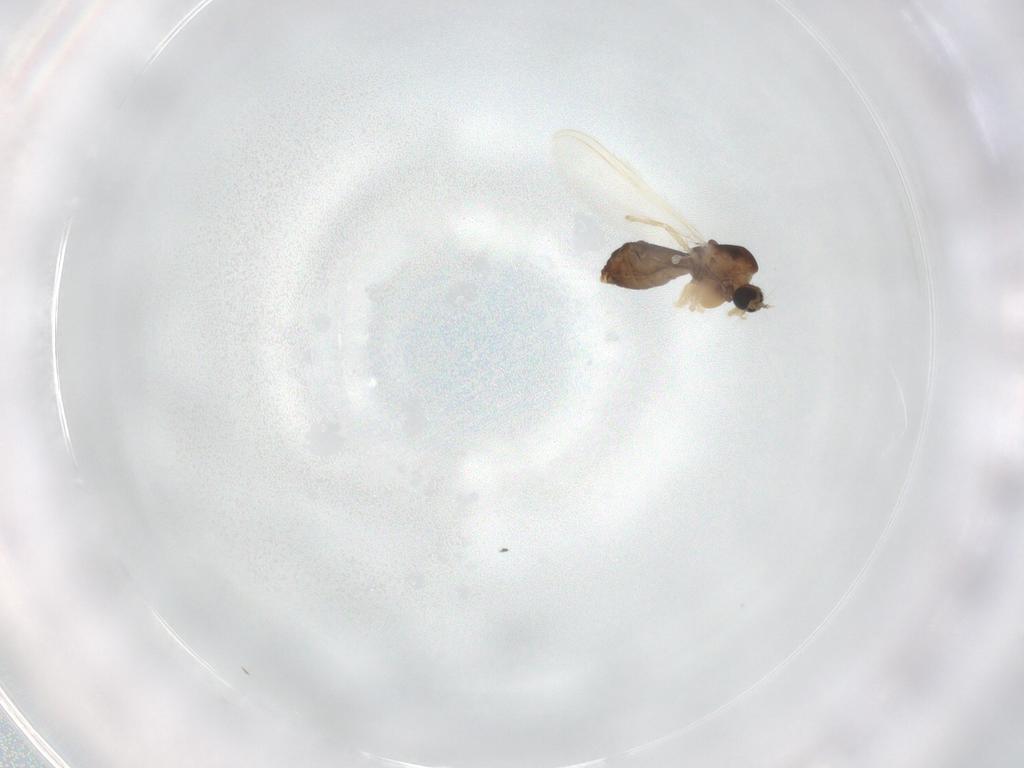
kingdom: Animalia
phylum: Arthropoda
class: Insecta
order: Diptera
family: Chironomidae
